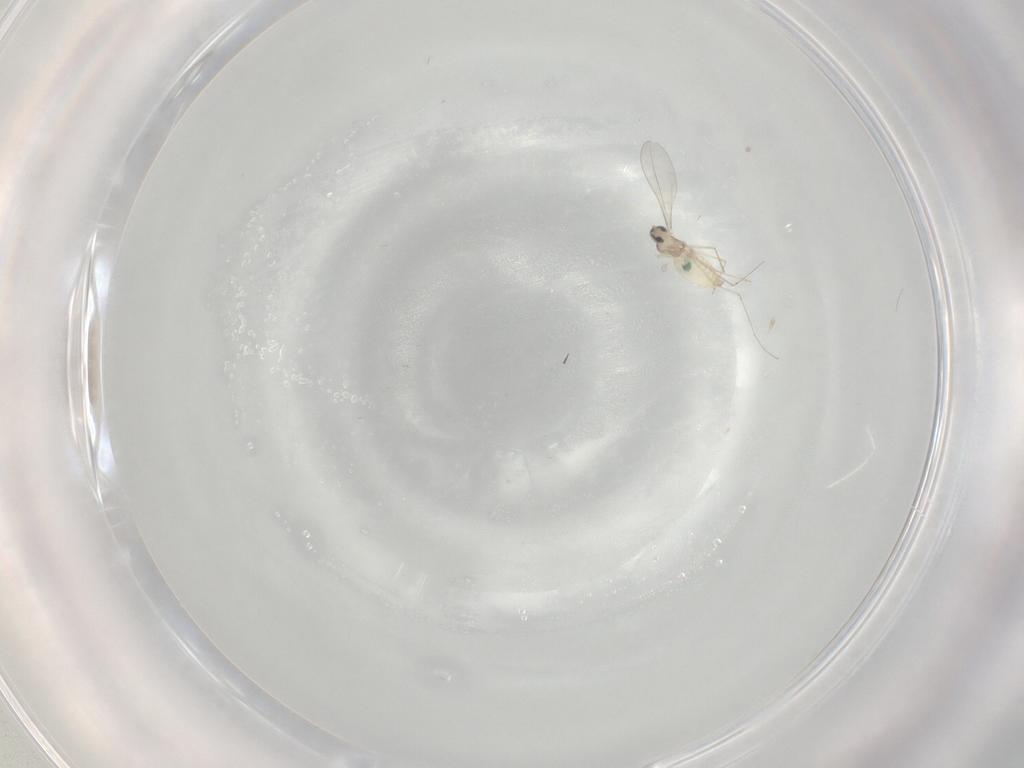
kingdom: Animalia
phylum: Arthropoda
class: Insecta
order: Diptera
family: Cecidomyiidae
